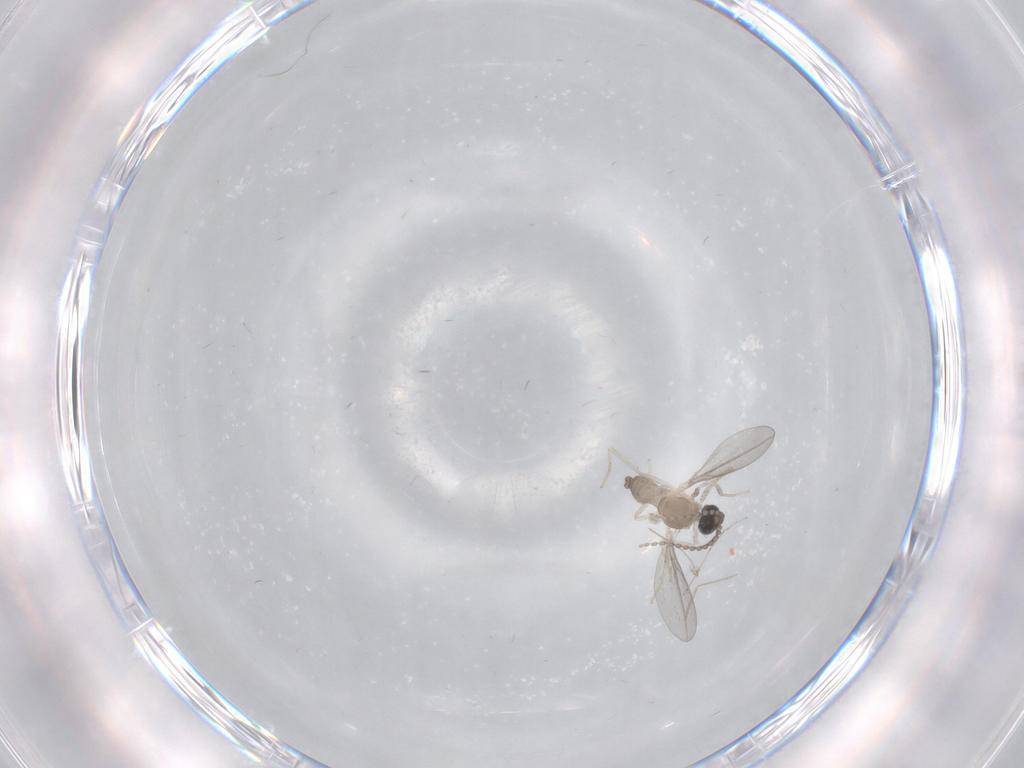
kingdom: Animalia
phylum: Arthropoda
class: Insecta
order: Diptera
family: Cecidomyiidae
